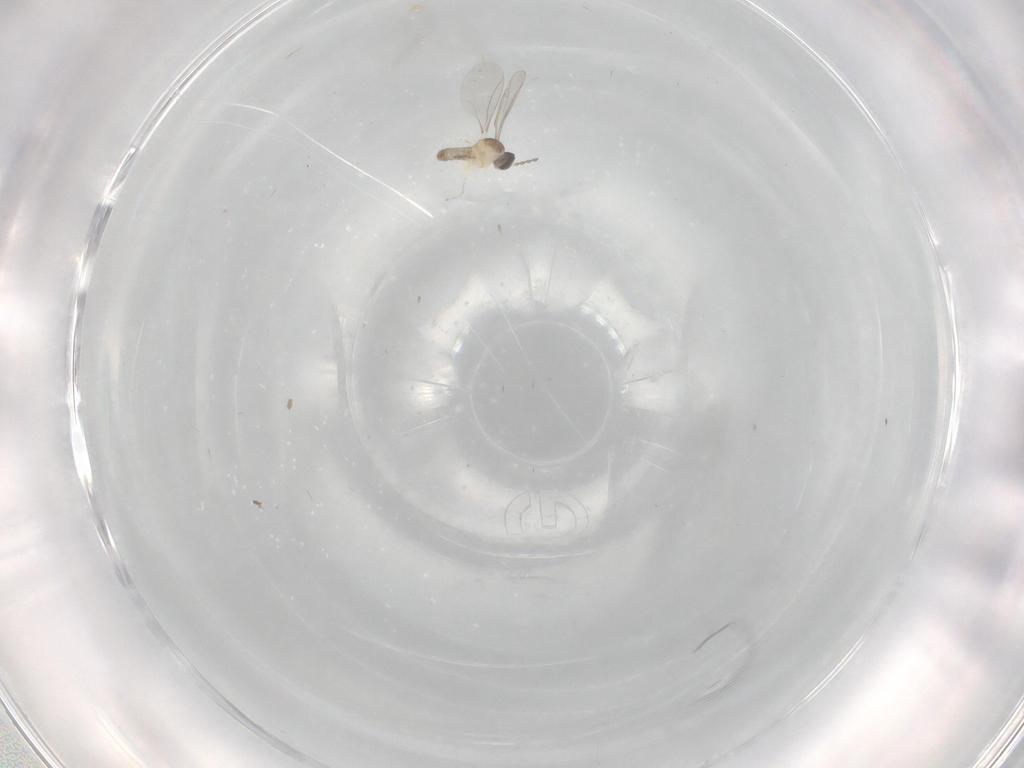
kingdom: Animalia
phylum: Arthropoda
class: Insecta
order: Diptera
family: Cecidomyiidae
